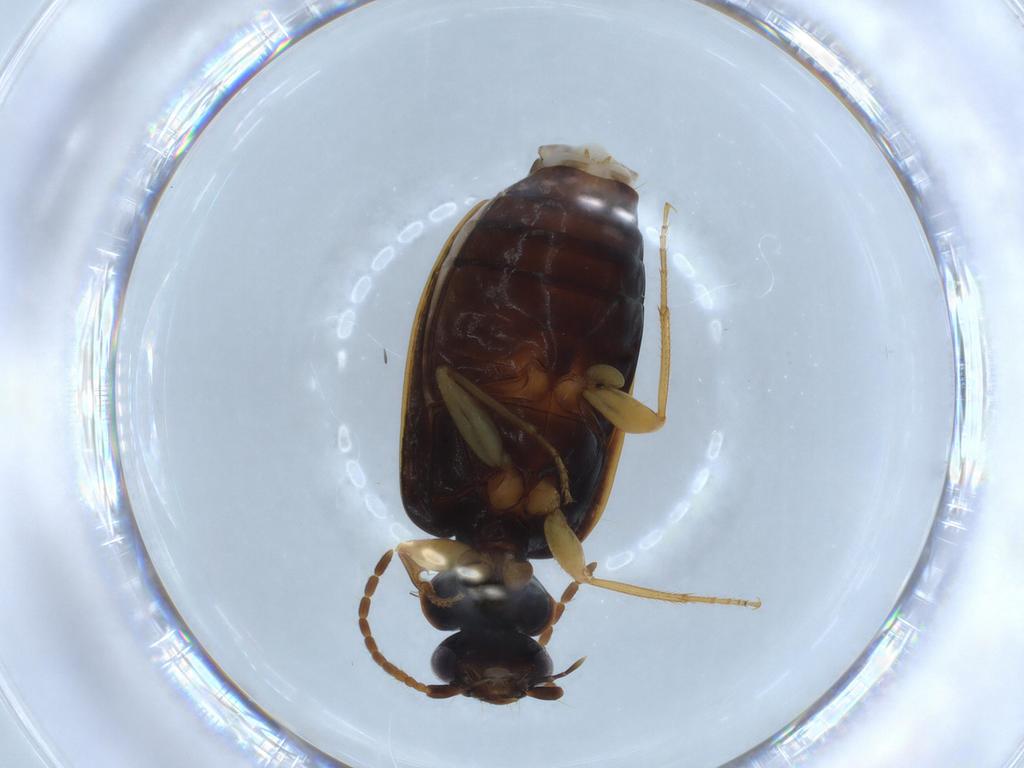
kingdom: Animalia
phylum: Arthropoda
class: Insecta
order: Coleoptera
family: Carabidae
